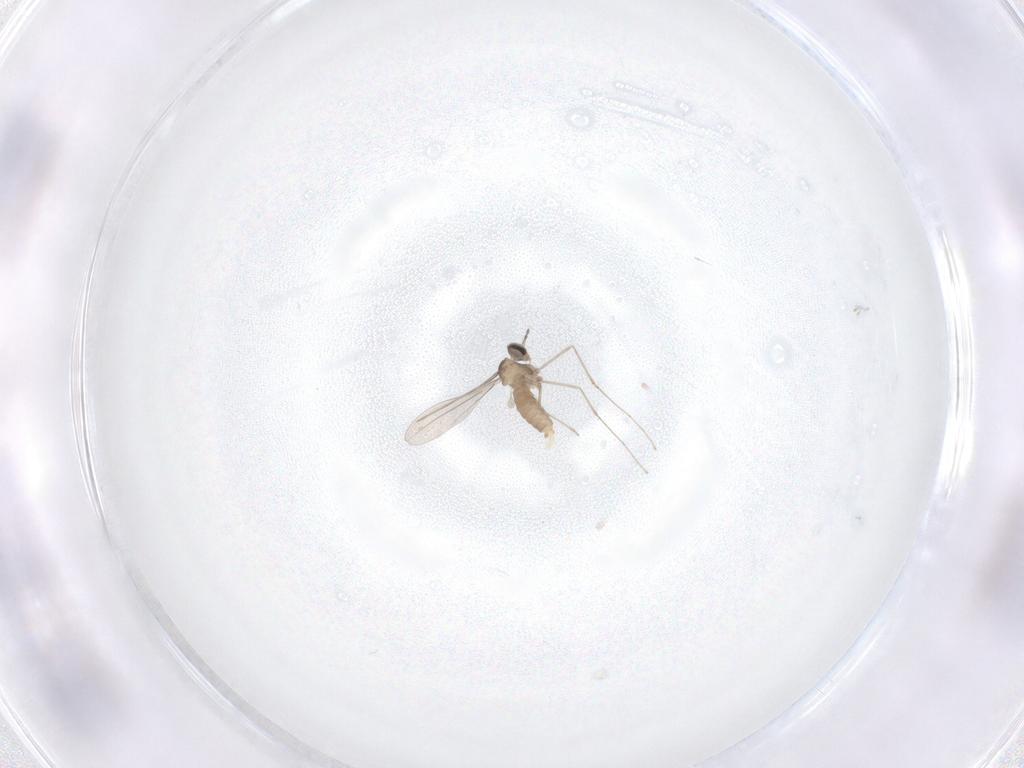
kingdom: Animalia
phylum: Arthropoda
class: Insecta
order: Diptera
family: Cecidomyiidae
